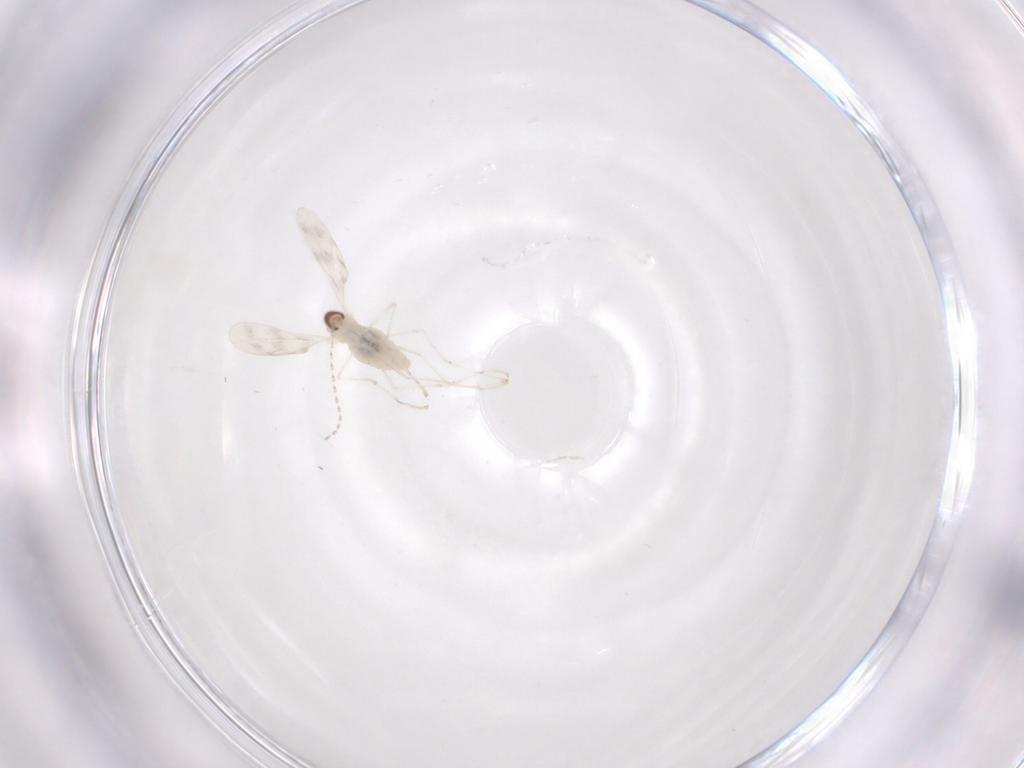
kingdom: Animalia
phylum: Arthropoda
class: Insecta
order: Diptera
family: Cecidomyiidae
